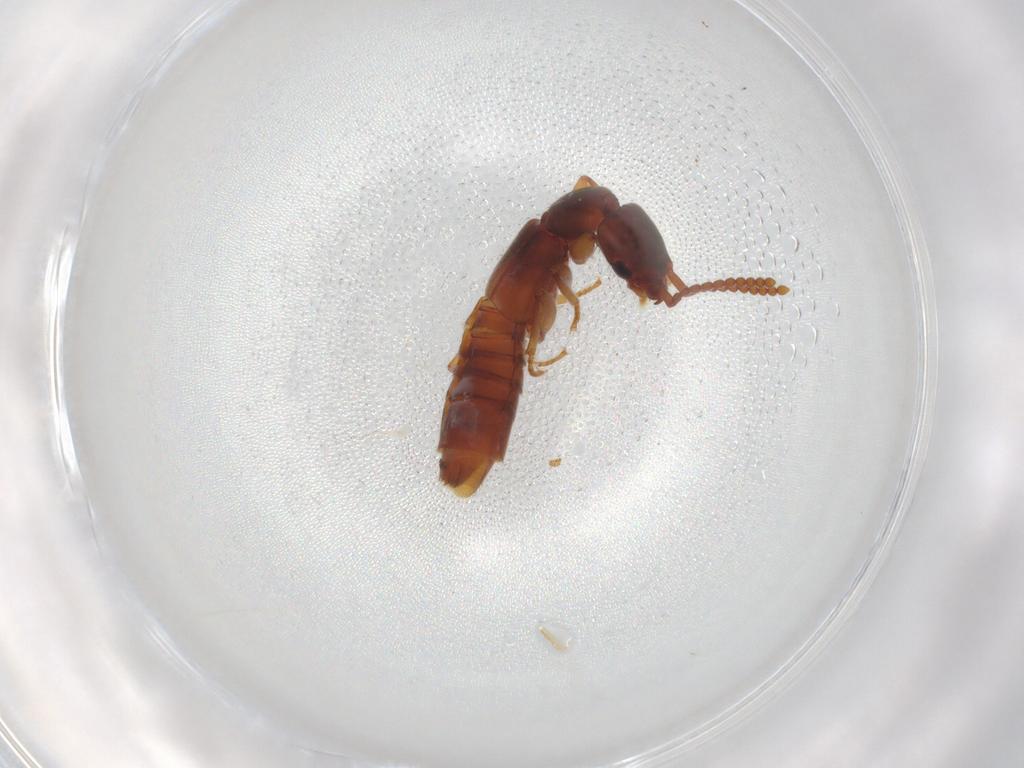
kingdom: Animalia
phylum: Arthropoda
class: Insecta
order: Coleoptera
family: Staphylinidae
